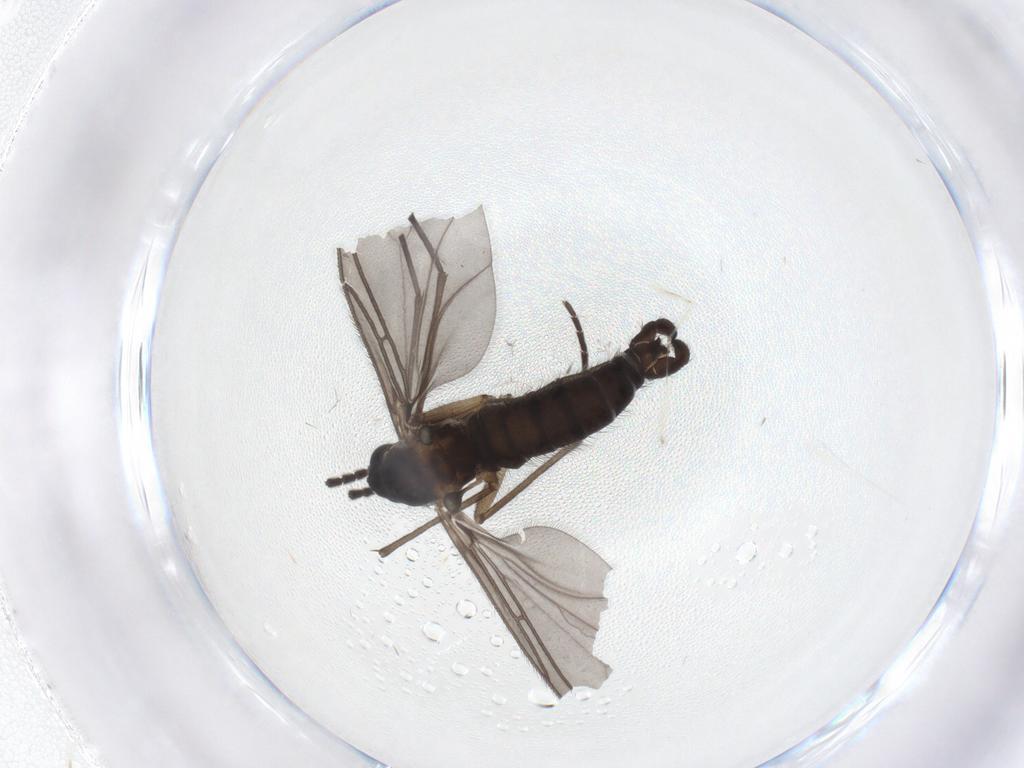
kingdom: Animalia
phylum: Arthropoda
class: Insecta
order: Diptera
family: Sciaridae
